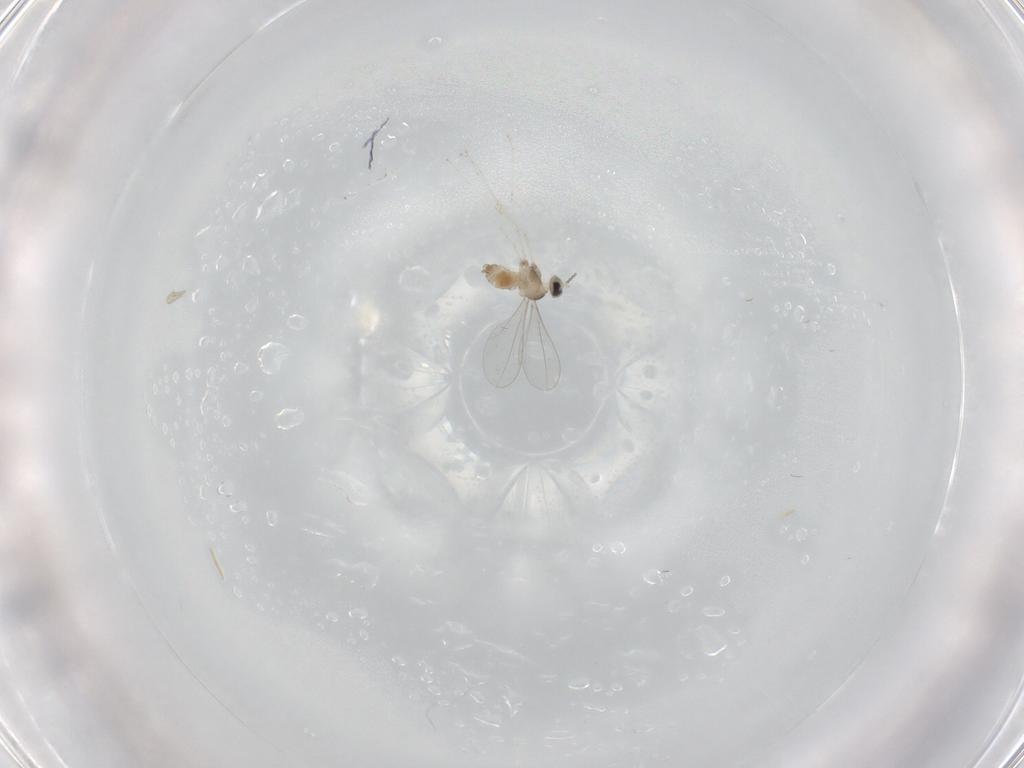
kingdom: Animalia
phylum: Arthropoda
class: Insecta
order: Diptera
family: Cecidomyiidae
